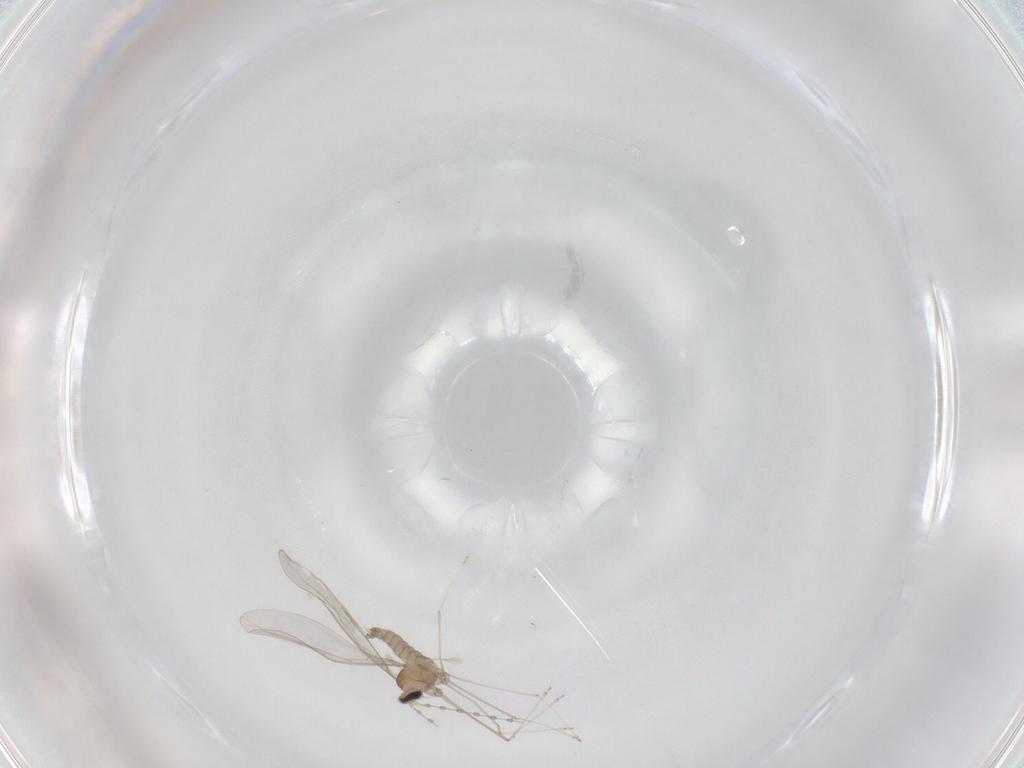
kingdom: Animalia
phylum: Arthropoda
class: Insecta
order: Diptera
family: Cecidomyiidae
